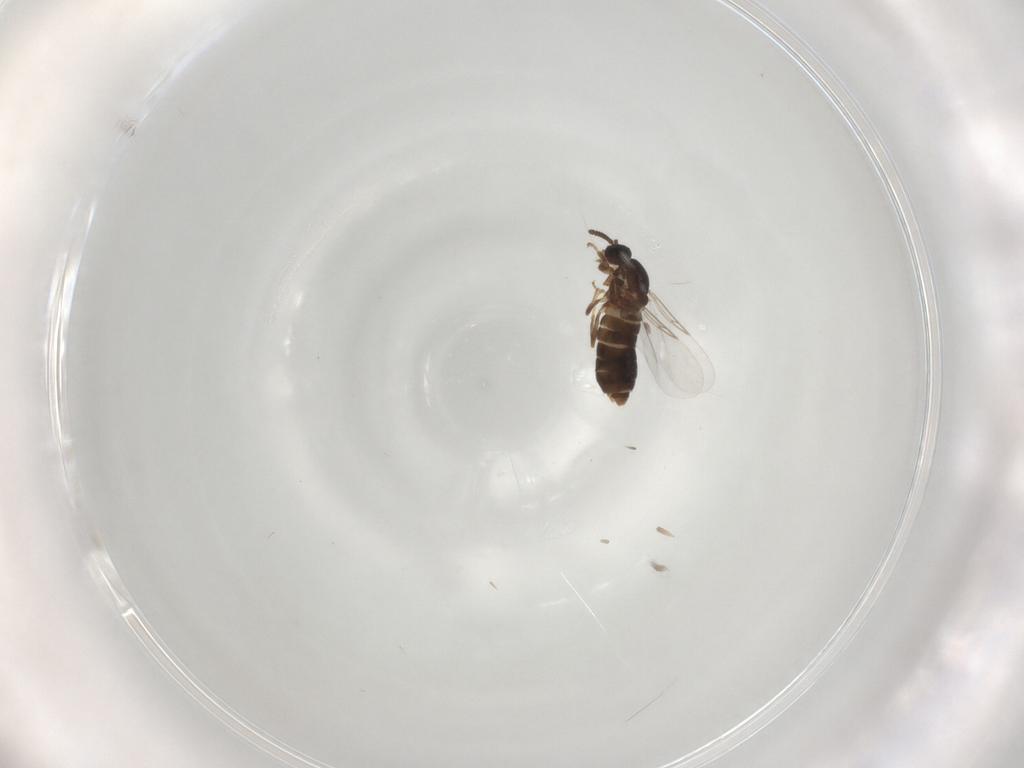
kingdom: Animalia
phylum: Arthropoda
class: Insecta
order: Diptera
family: Scatopsidae
